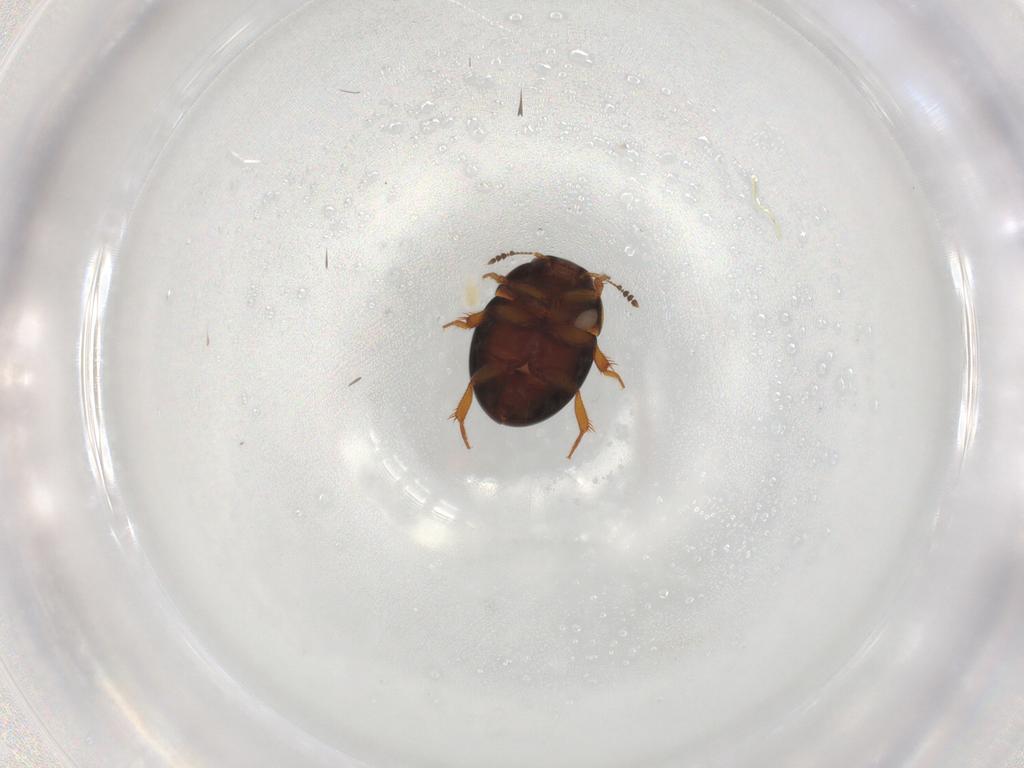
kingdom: Animalia
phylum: Arthropoda
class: Insecta
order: Coleoptera
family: Leiodidae
